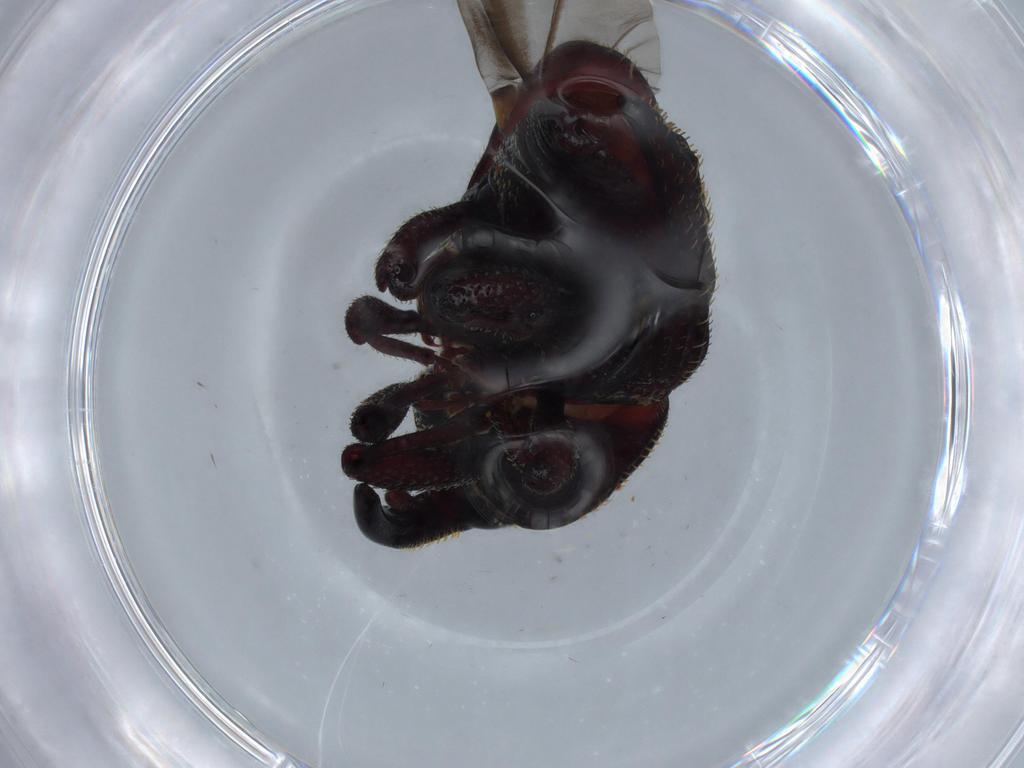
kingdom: Animalia
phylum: Arthropoda
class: Insecta
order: Coleoptera
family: Curculionidae
